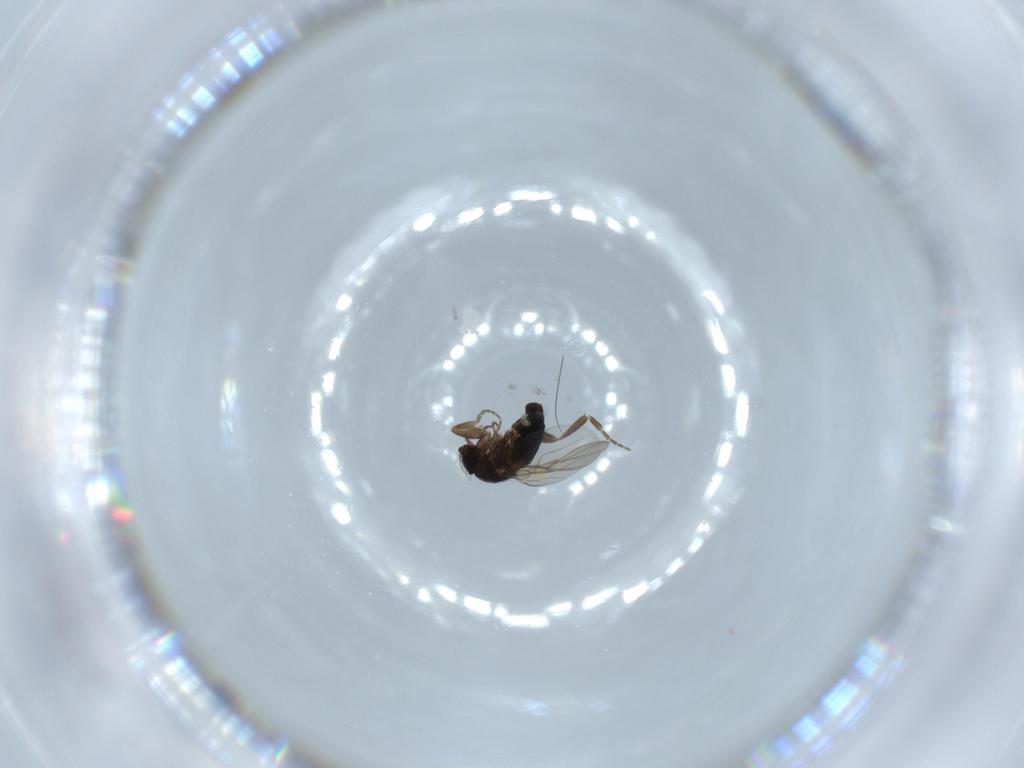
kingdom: Animalia
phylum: Arthropoda
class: Insecta
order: Diptera
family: Phoridae
